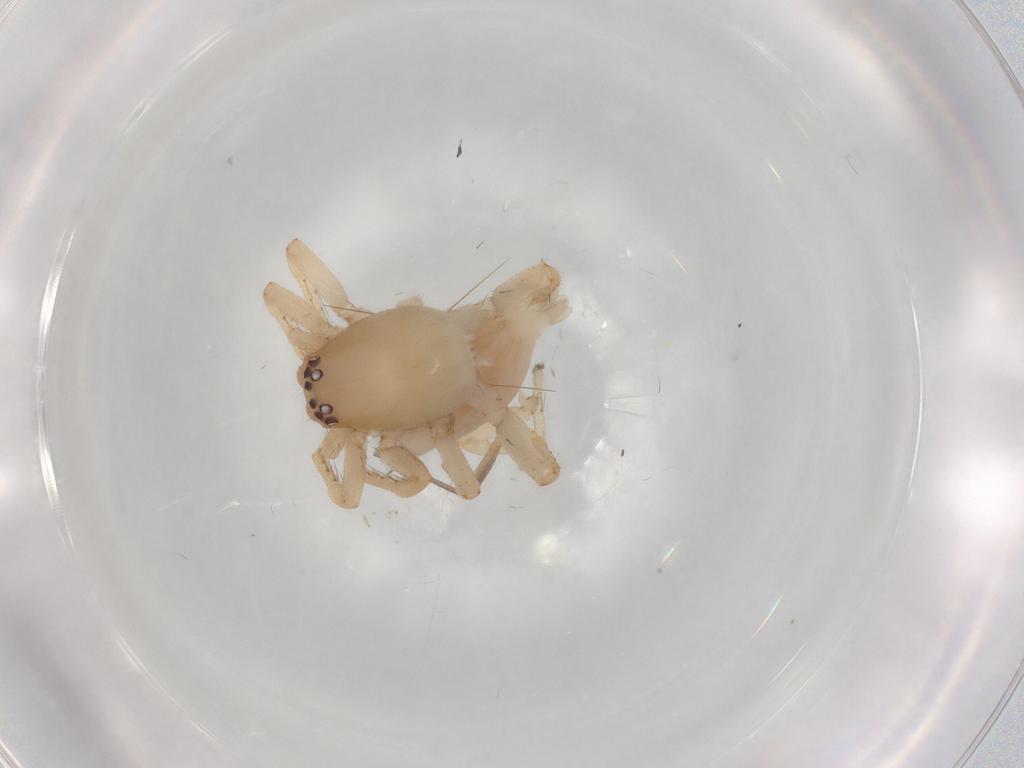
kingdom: Animalia
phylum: Arthropoda
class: Arachnida
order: Araneae
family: Clubionidae
